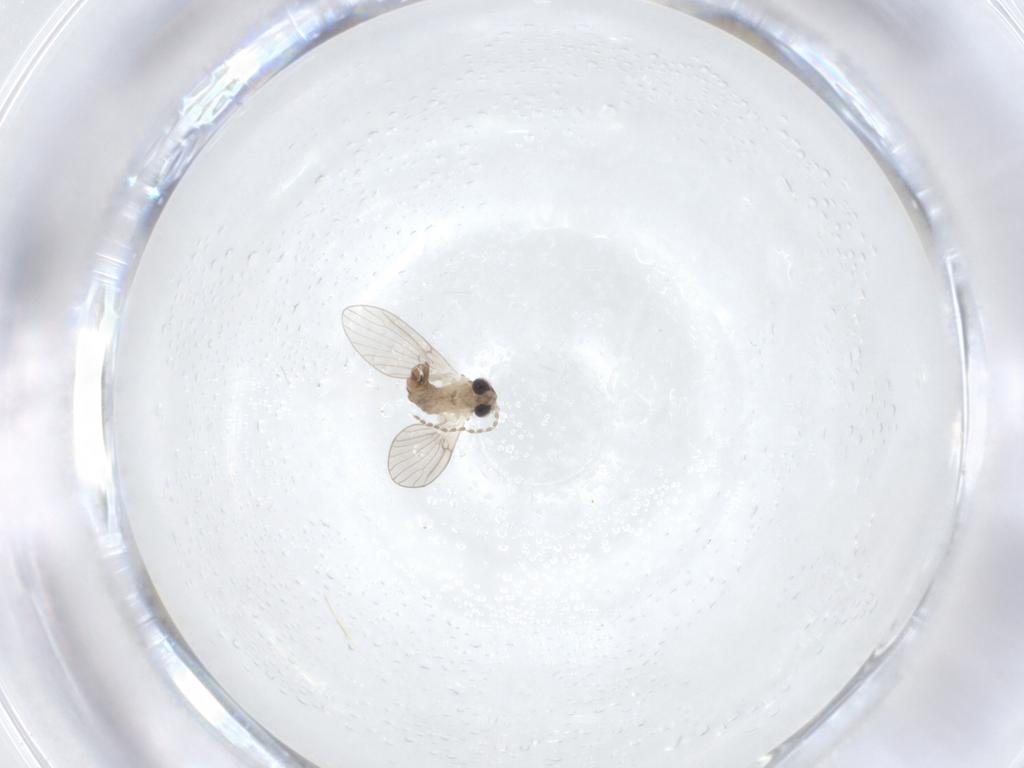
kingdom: Animalia
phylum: Arthropoda
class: Insecta
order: Diptera
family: Psychodidae
